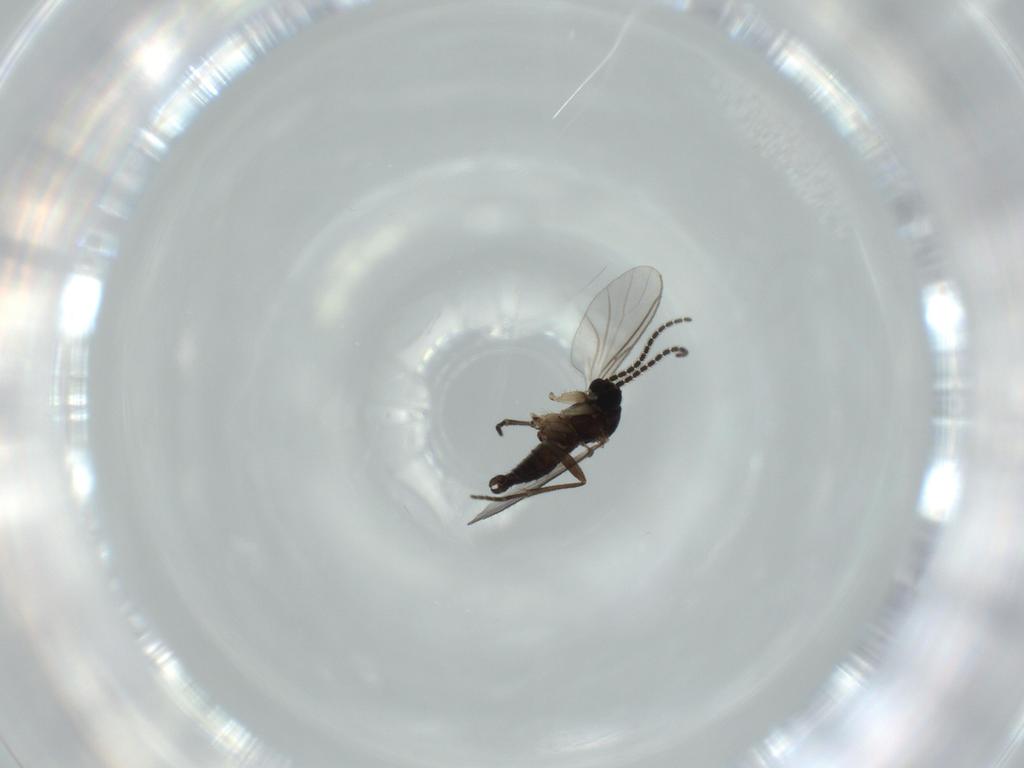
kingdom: Animalia
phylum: Arthropoda
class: Insecta
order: Diptera
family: Sciaridae
